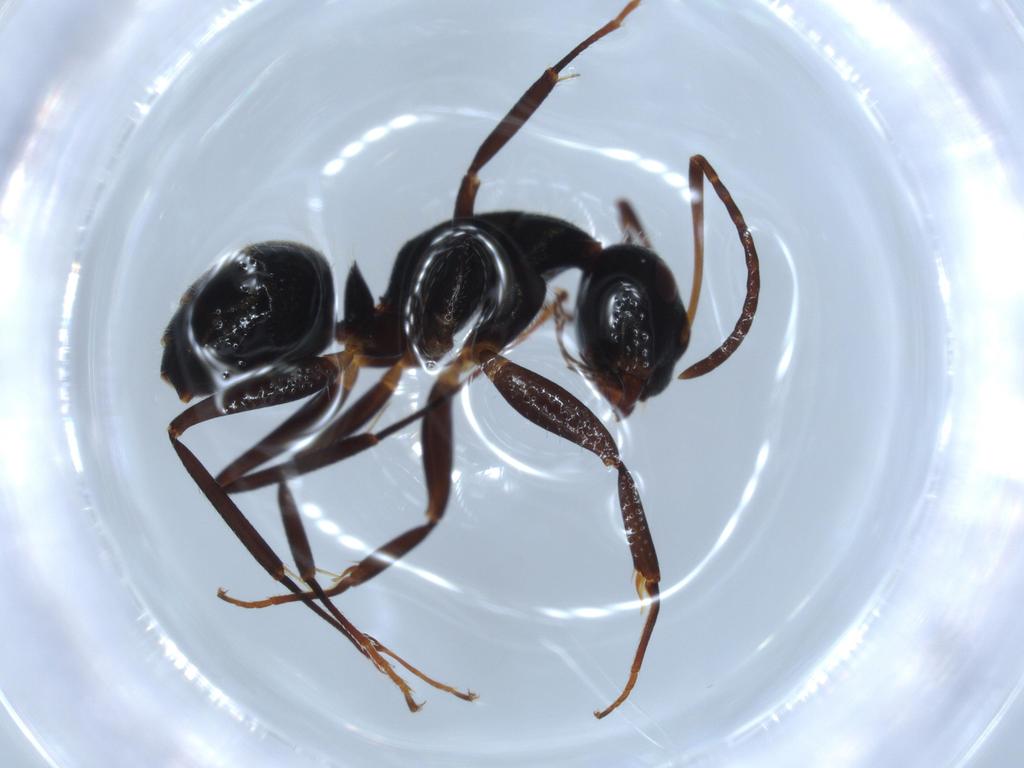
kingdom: Animalia
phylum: Arthropoda
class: Insecta
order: Hymenoptera
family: Formicidae
